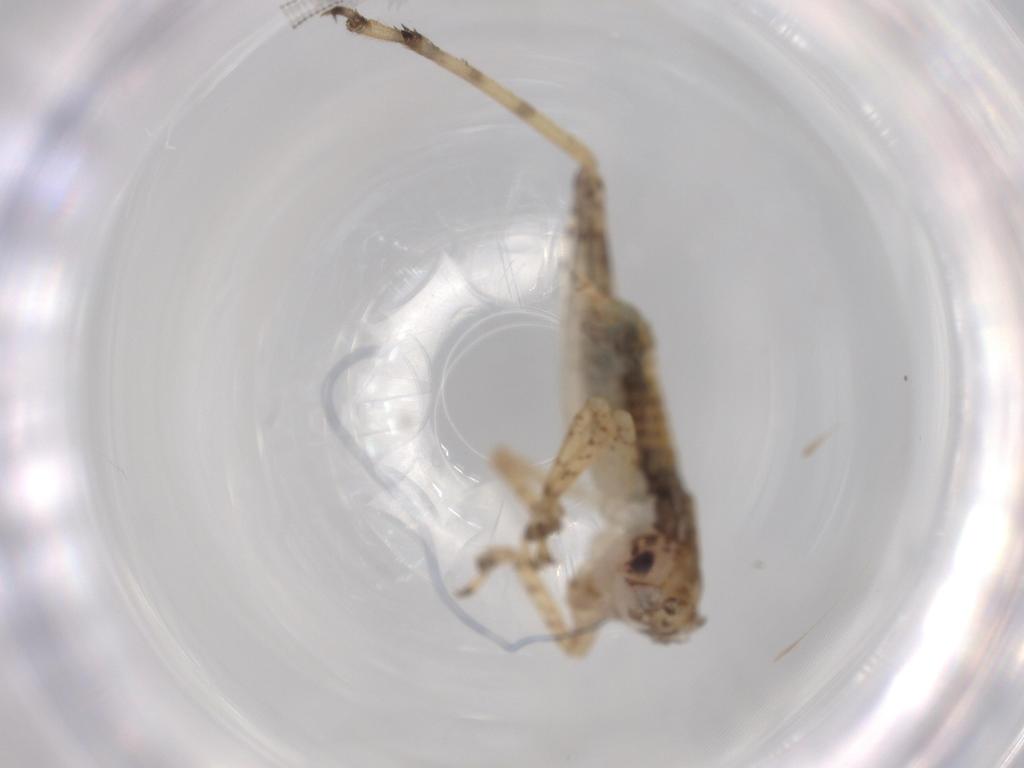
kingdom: Animalia
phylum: Arthropoda
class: Insecta
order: Orthoptera
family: Gryllidae
